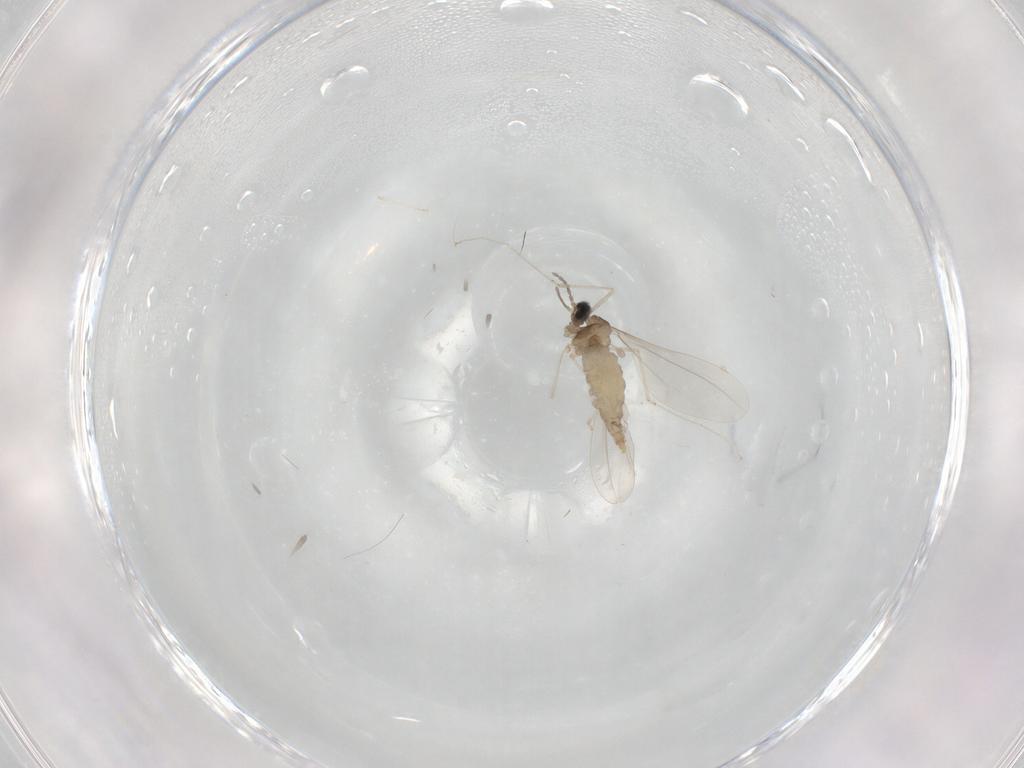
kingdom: Animalia
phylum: Arthropoda
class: Insecta
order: Diptera
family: Cecidomyiidae
